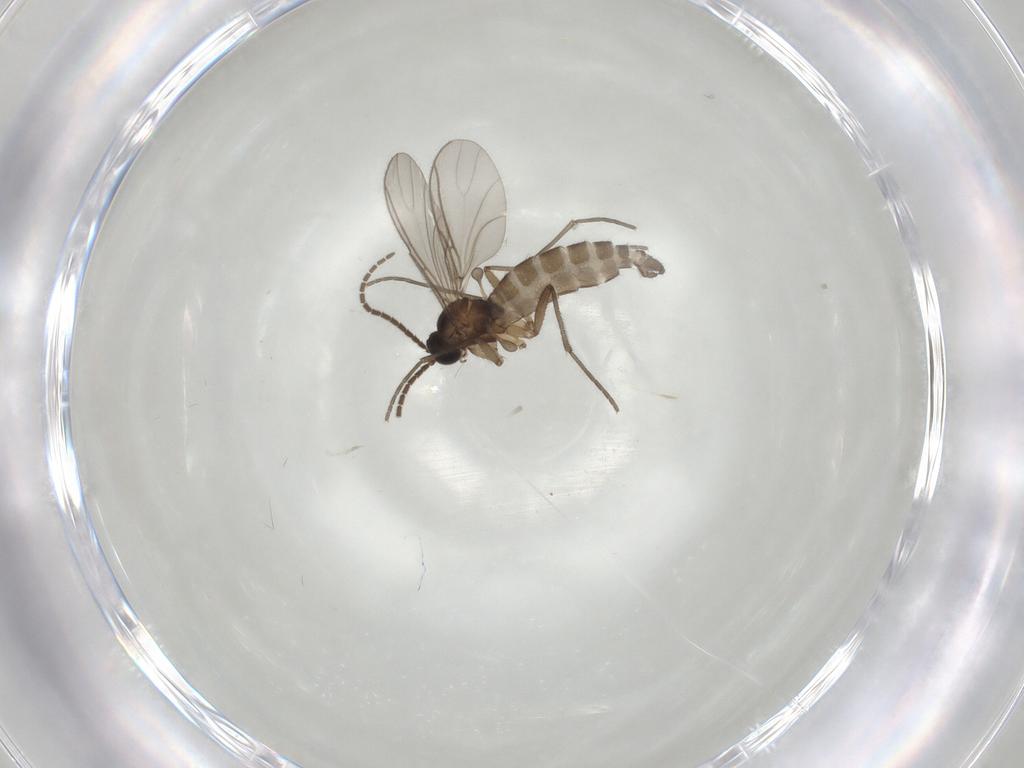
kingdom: Animalia
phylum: Arthropoda
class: Insecta
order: Diptera
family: Sciaridae
